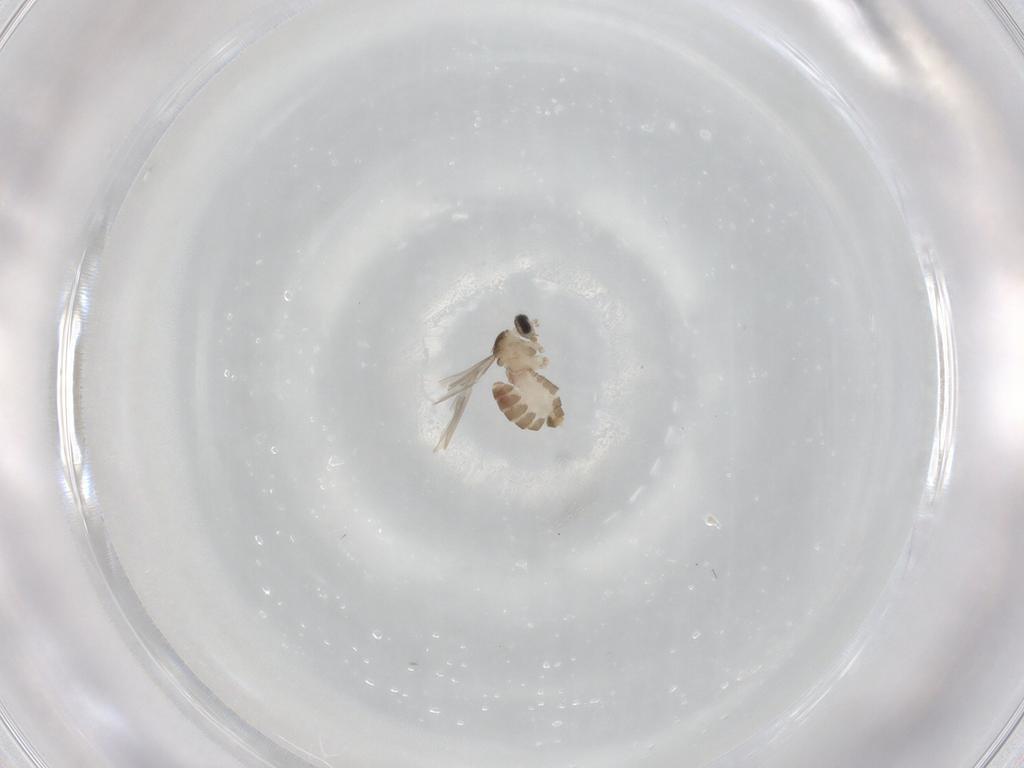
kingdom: Animalia
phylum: Arthropoda
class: Insecta
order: Diptera
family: Cecidomyiidae
